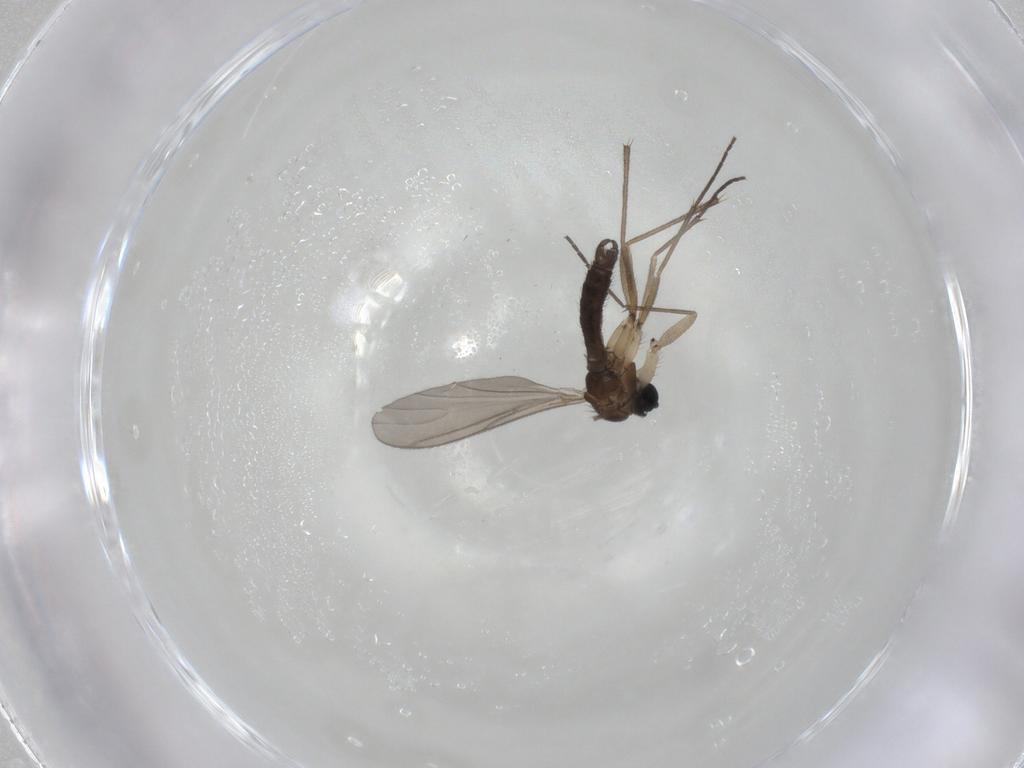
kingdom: Animalia
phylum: Arthropoda
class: Insecta
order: Diptera
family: Sciaridae
